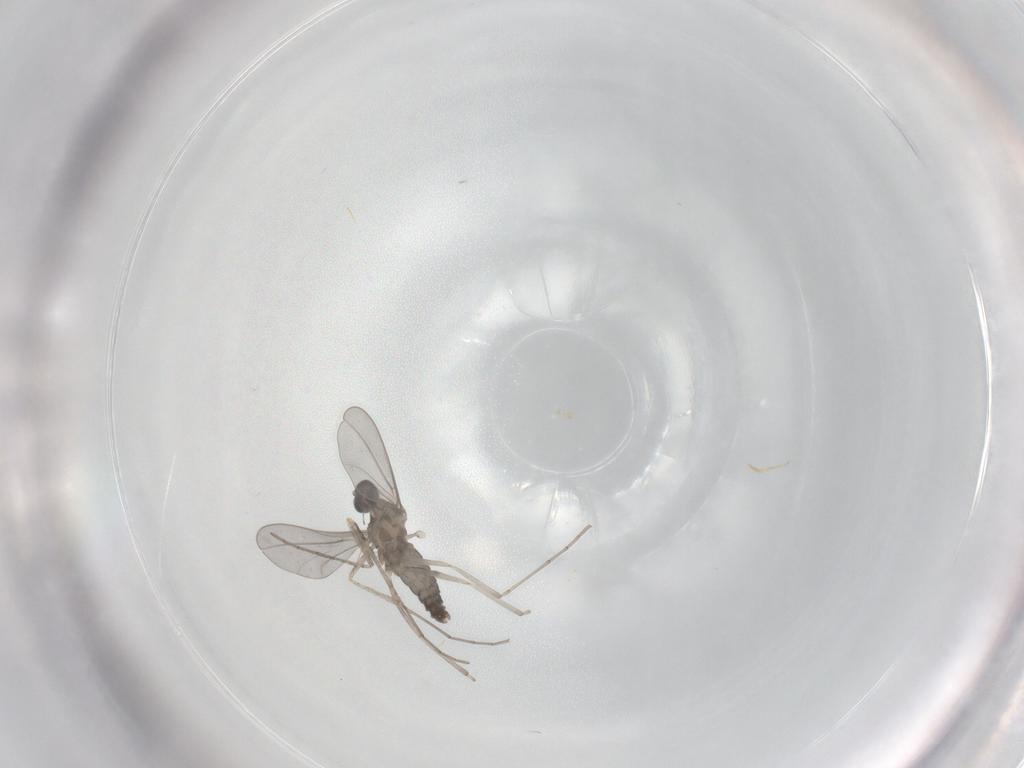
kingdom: Animalia
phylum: Arthropoda
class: Insecta
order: Diptera
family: Cecidomyiidae
